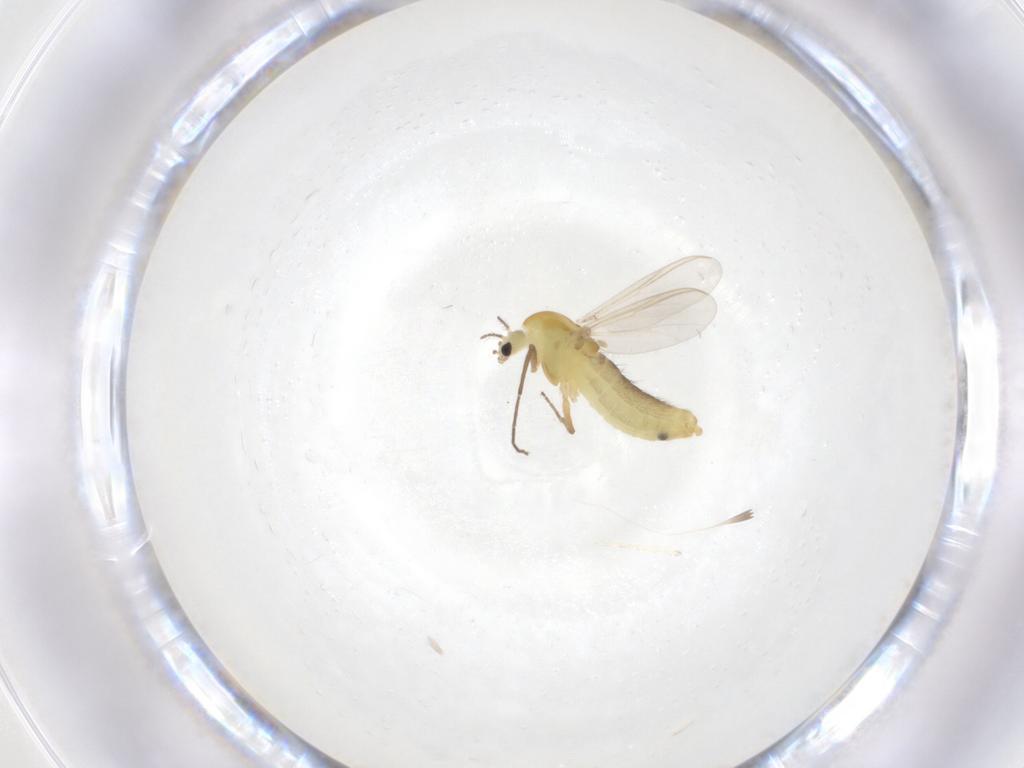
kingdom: Animalia
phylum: Arthropoda
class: Insecta
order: Diptera
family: Chironomidae
